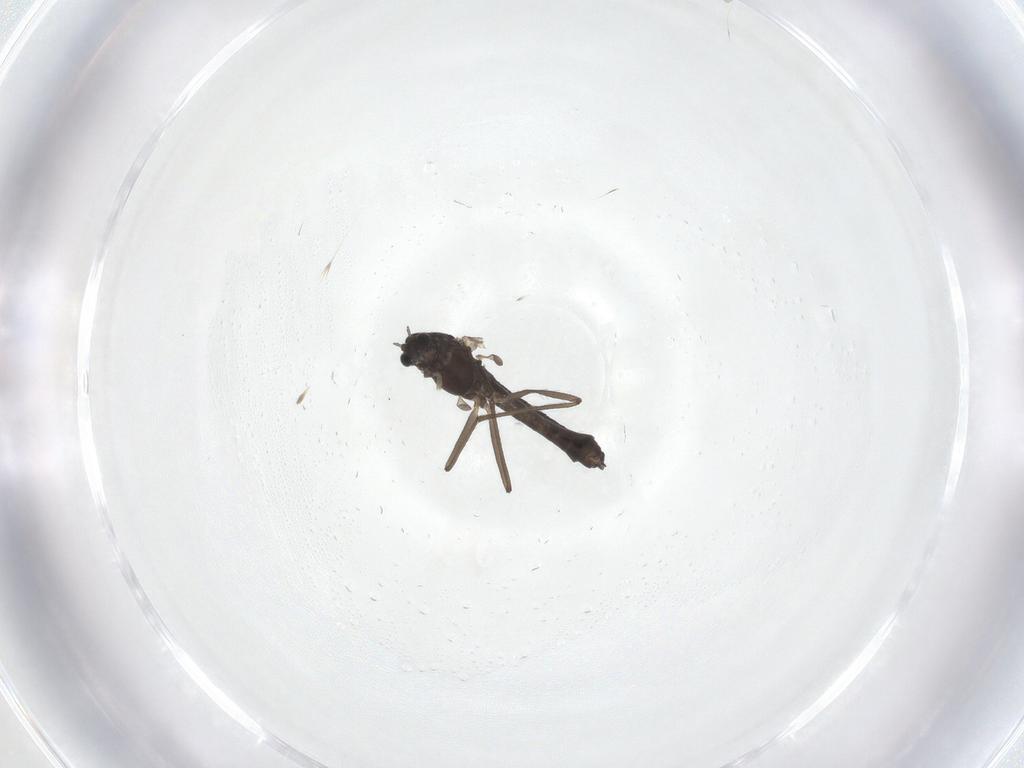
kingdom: Animalia
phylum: Arthropoda
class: Insecta
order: Diptera
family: Chironomidae
